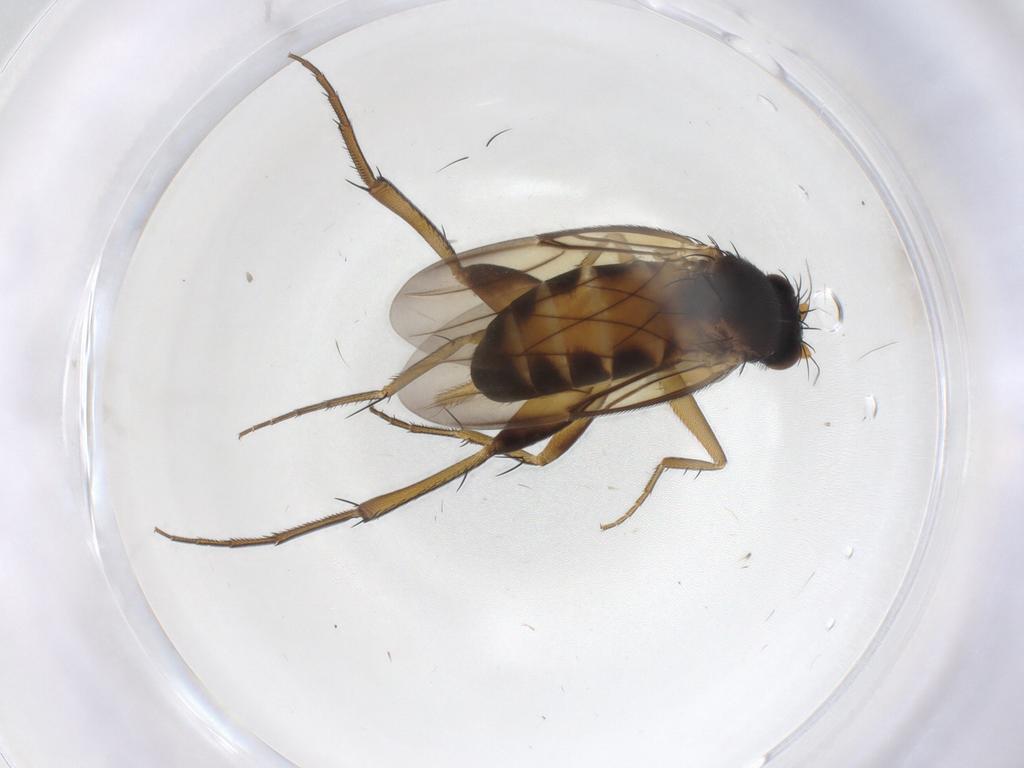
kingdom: Animalia
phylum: Arthropoda
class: Insecta
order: Diptera
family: Phoridae
